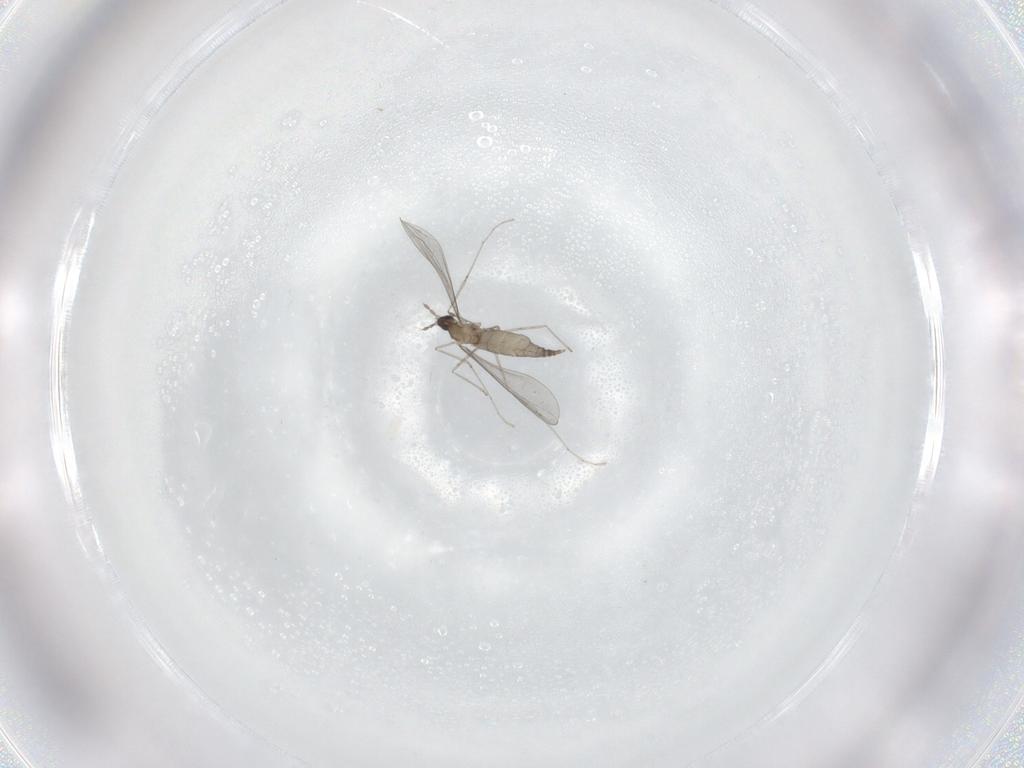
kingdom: Animalia
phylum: Arthropoda
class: Insecta
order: Diptera
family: Cecidomyiidae
